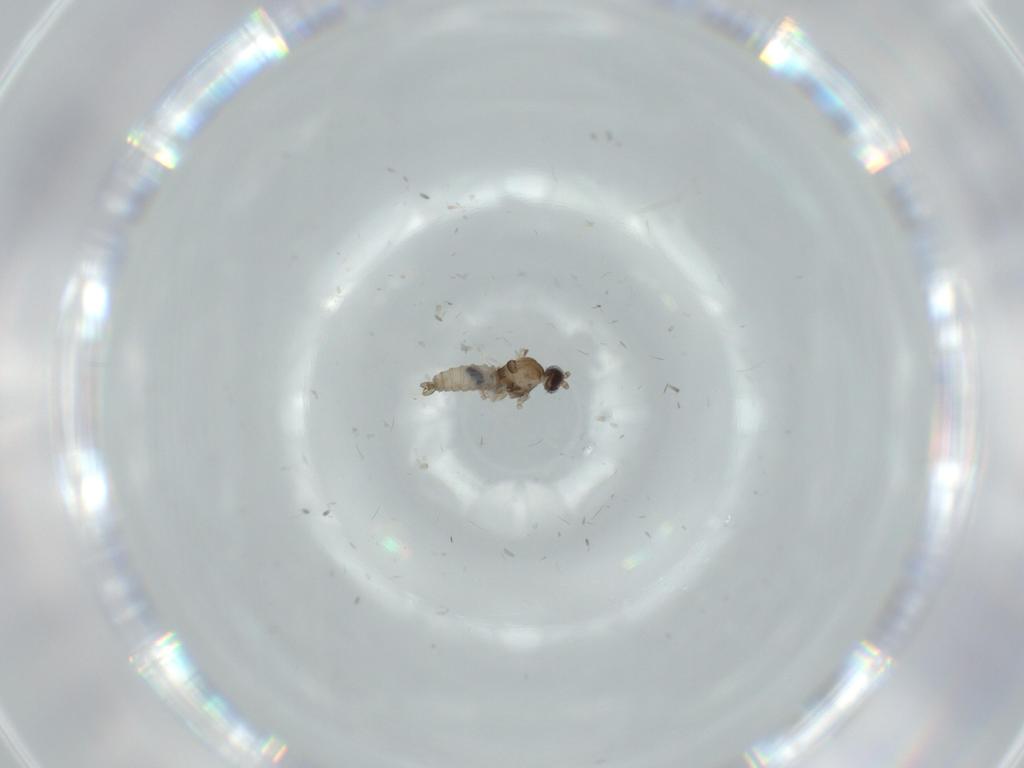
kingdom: Animalia
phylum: Arthropoda
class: Insecta
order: Diptera
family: Cecidomyiidae
